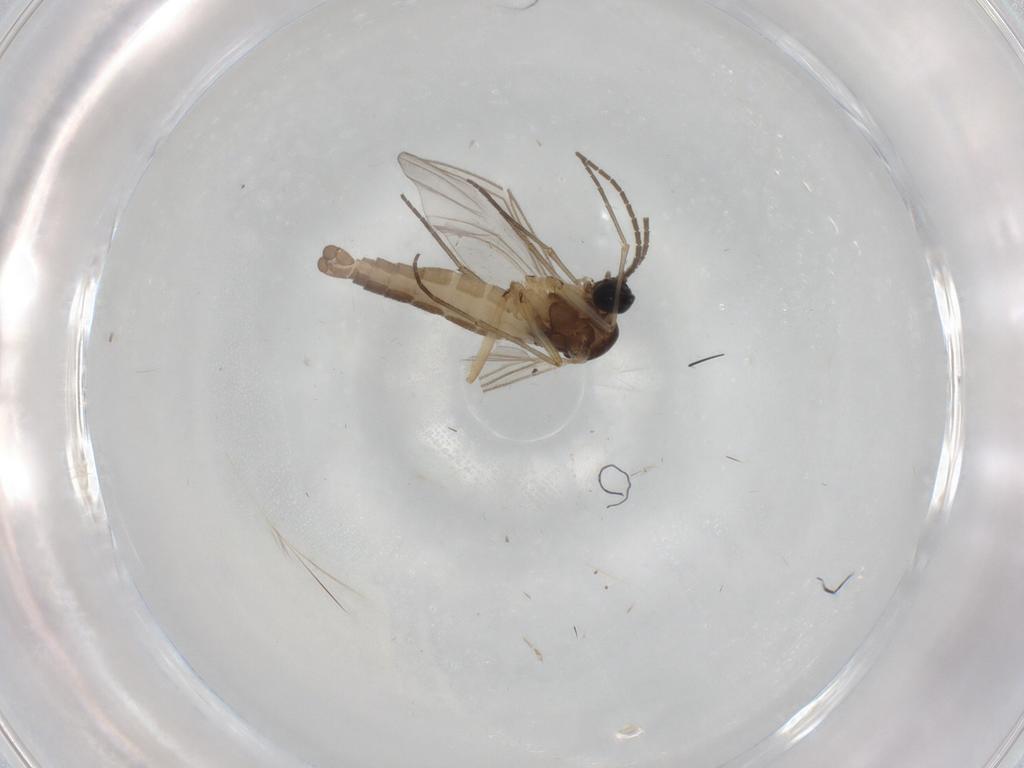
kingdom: Animalia
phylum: Arthropoda
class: Insecta
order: Diptera
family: Sciaridae
